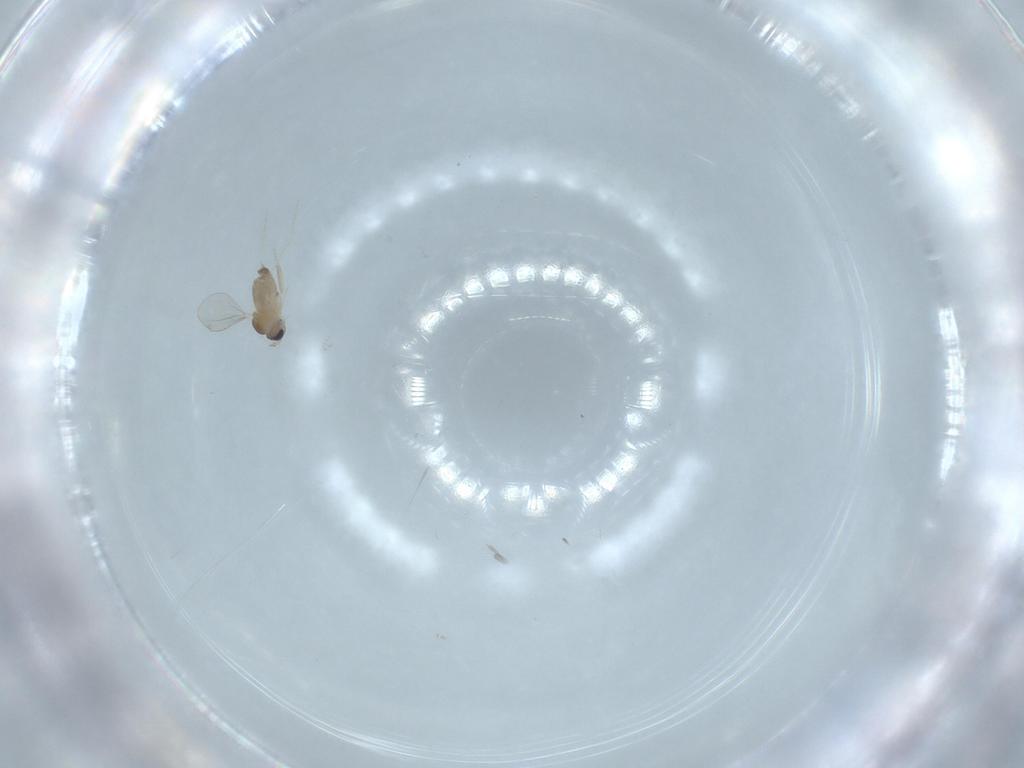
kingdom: Animalia
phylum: Arthropoda
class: Insecta
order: Diptera
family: Cecidomyiidae
